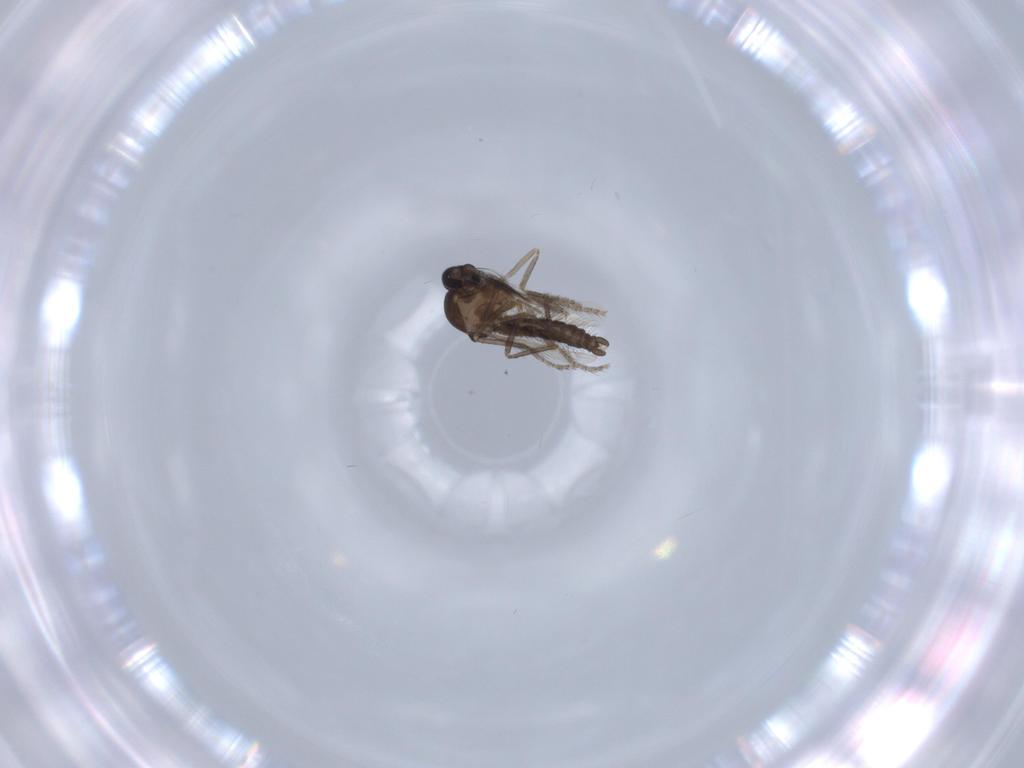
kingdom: Animalia
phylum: Arthropoda
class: Insecta
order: Diptera
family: Ceratopogonidae
